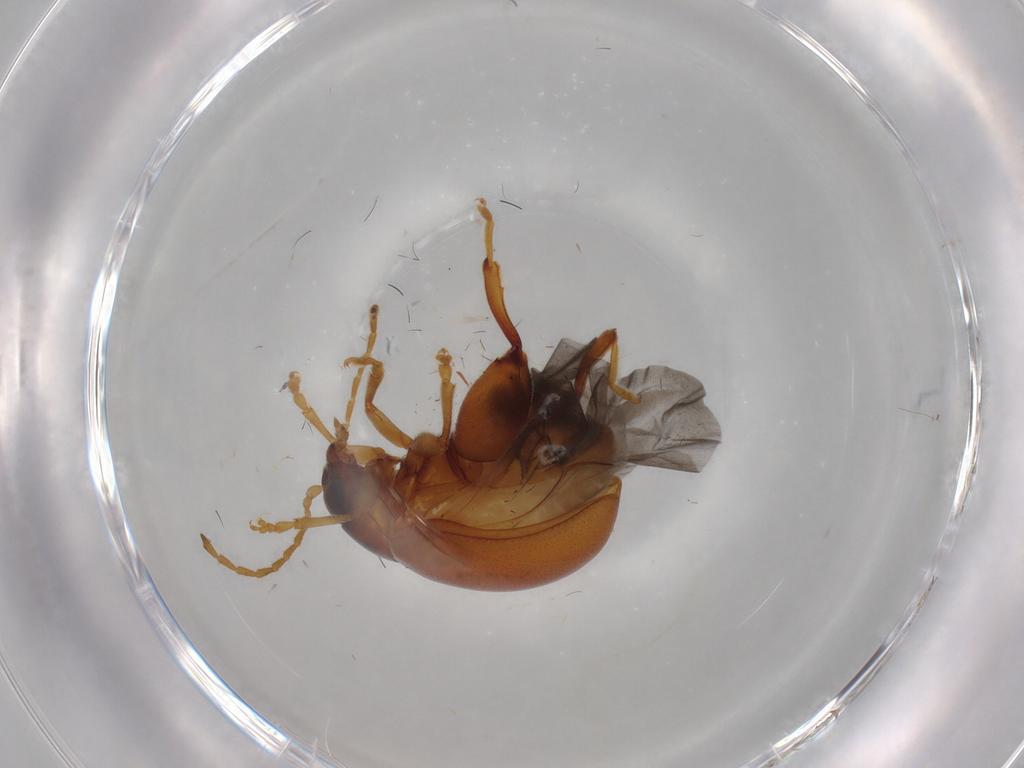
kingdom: Animalia
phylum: Arthropoda
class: Insecta
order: Coleoptera
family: Chrysomelidae
